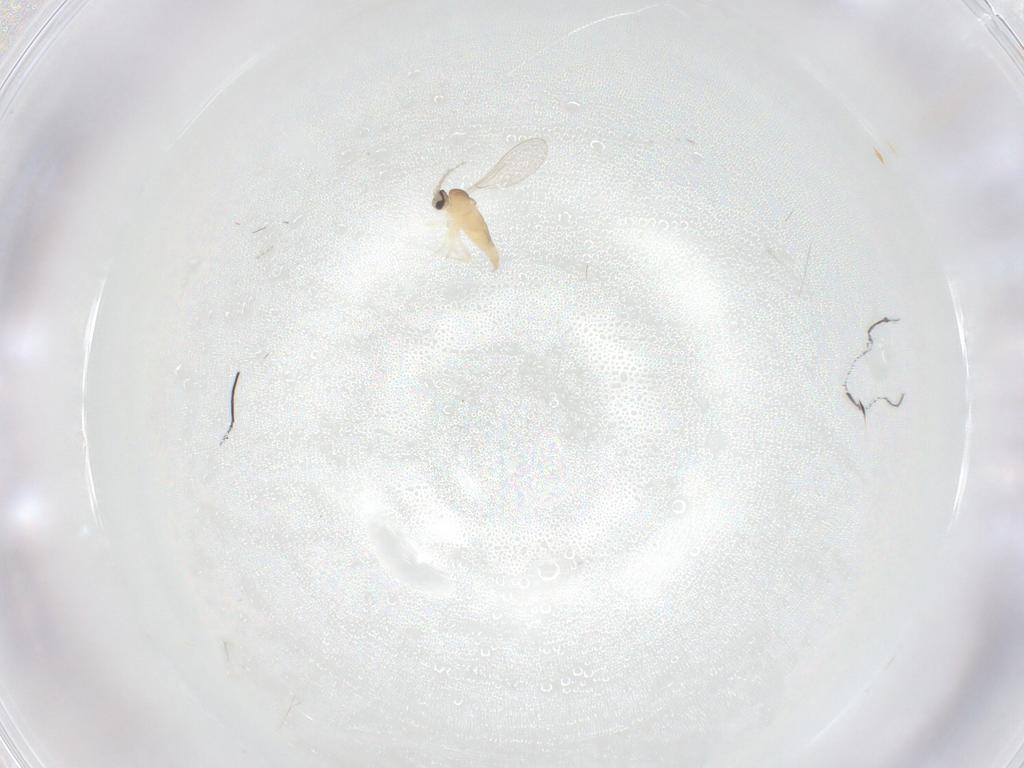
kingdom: Animalia
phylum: Arthropoda
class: Insecta
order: Diptera
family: Cecidomyiidae
